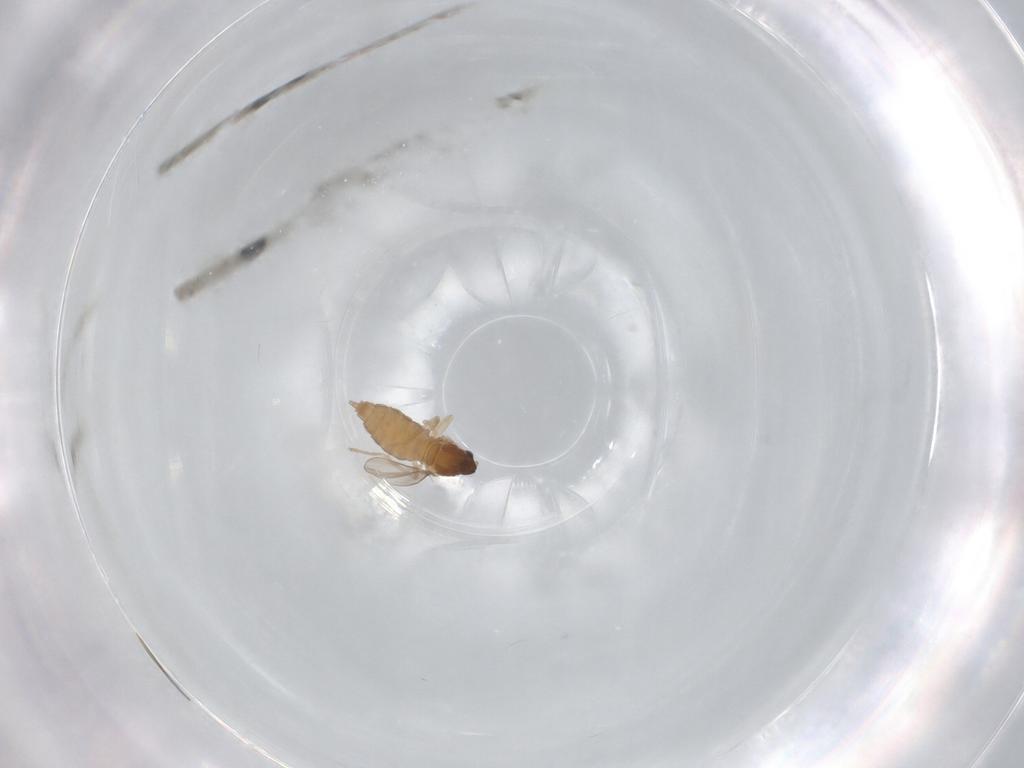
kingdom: Animalia
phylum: Arthropoda
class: Insecta
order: Diptera
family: Cecidomyiidae
